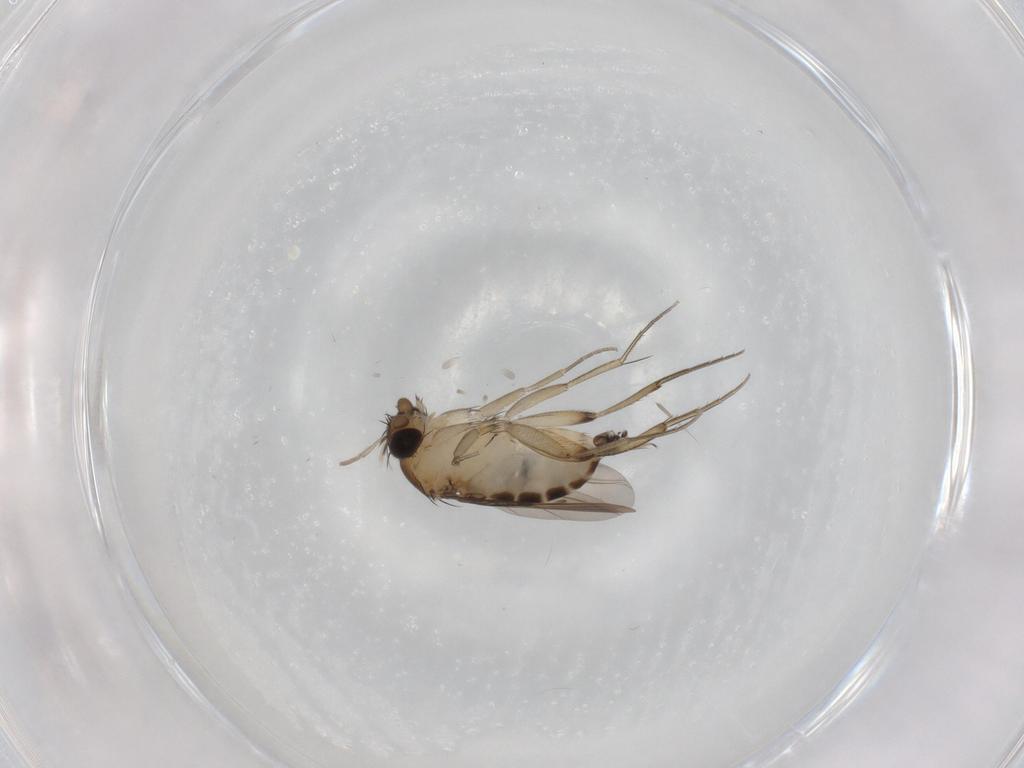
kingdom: Animalia
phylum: Arthropoda
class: Insecta
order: Diptera
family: Phoridae
